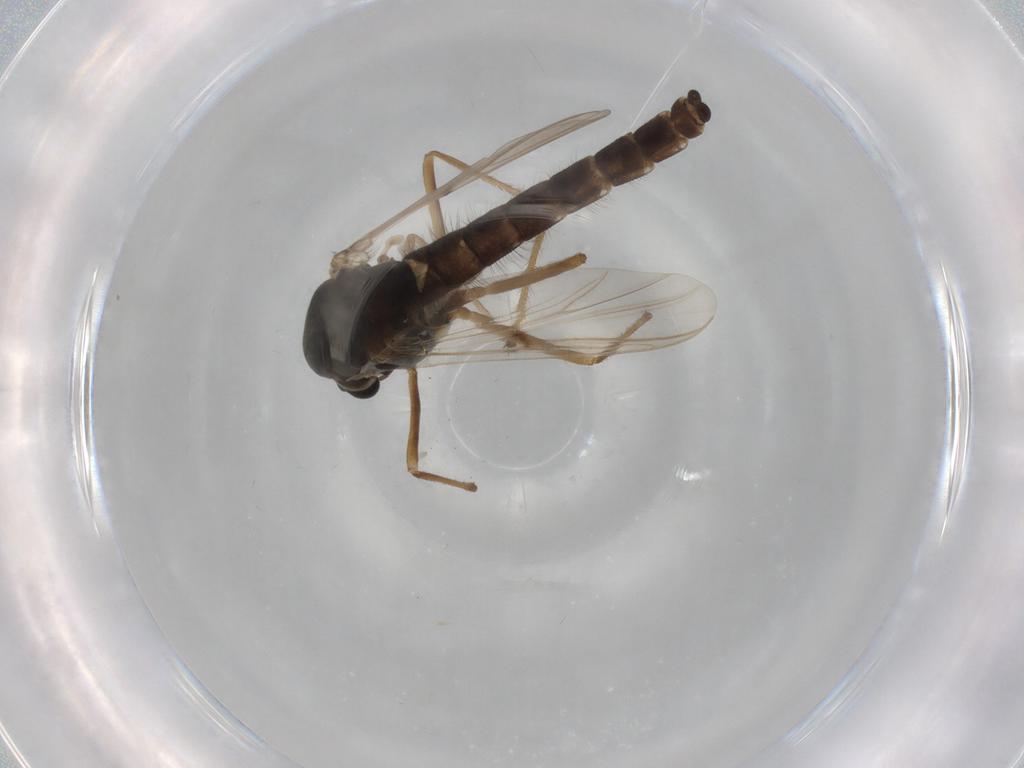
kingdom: Animalia
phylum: Arthropoda
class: Insecta
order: Diptera
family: Chironomidae
